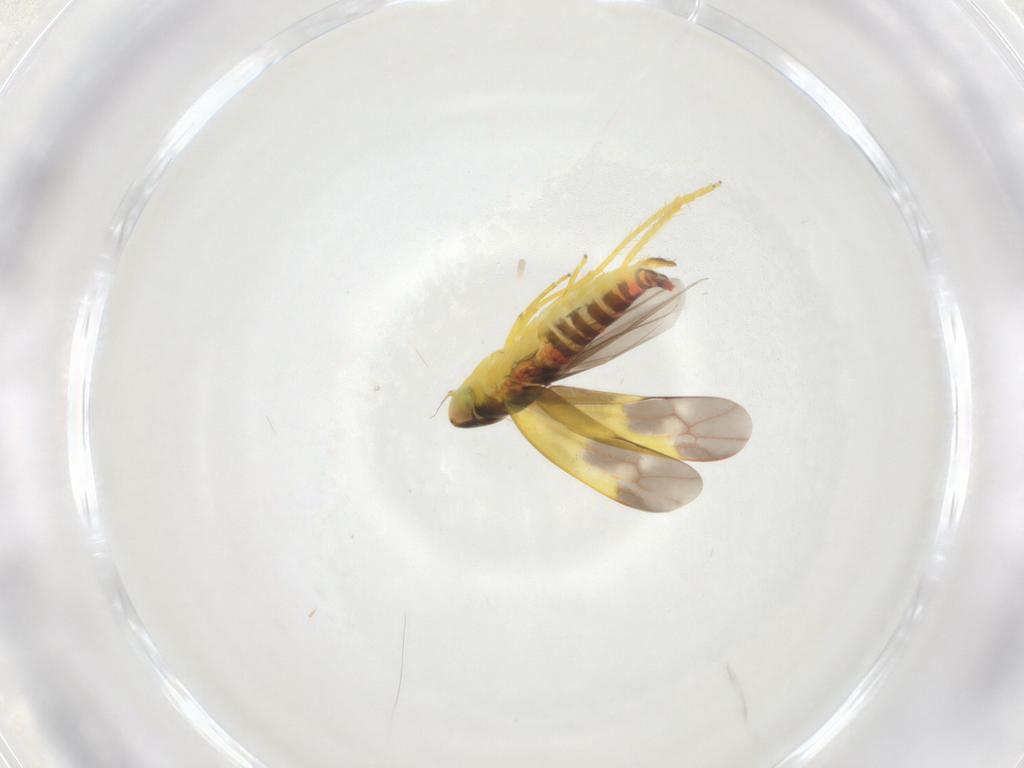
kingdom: Animalia
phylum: Arthropoda
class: Insecta
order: Hemiptera
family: Cicadellidae
